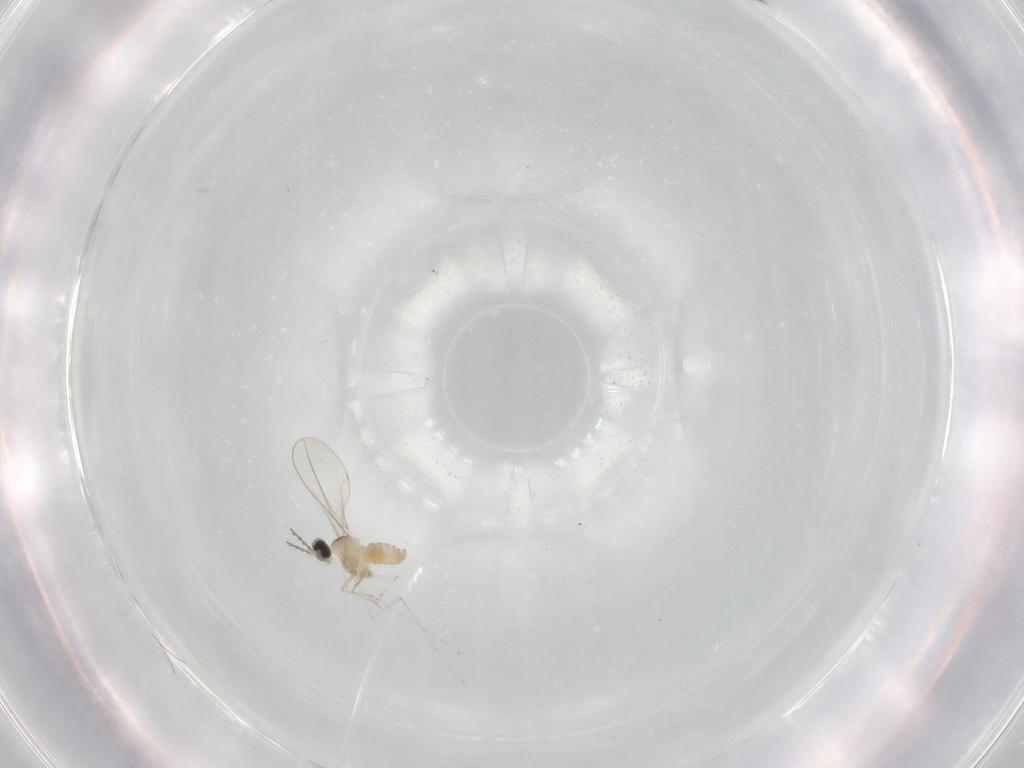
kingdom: Animalia
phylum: Arthropoda
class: Insecta
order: Diptera
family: Cecidomyiidae
